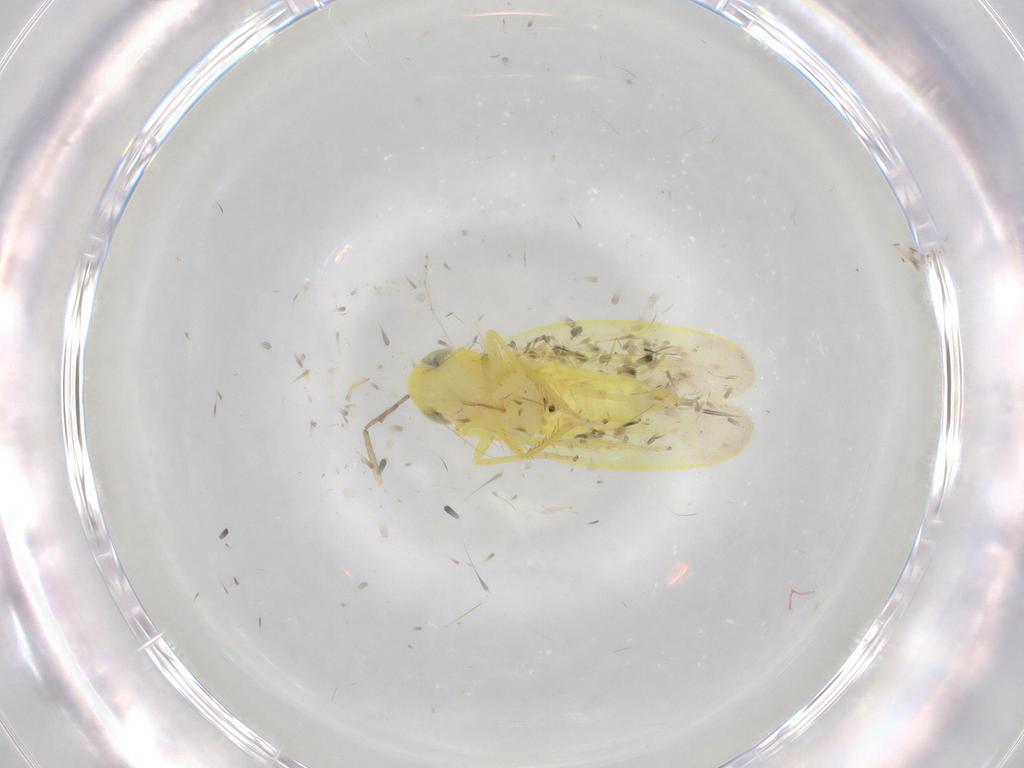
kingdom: Animalia
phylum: Arthropoda
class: Insecta
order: Hemiptera
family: Cicadellidae
